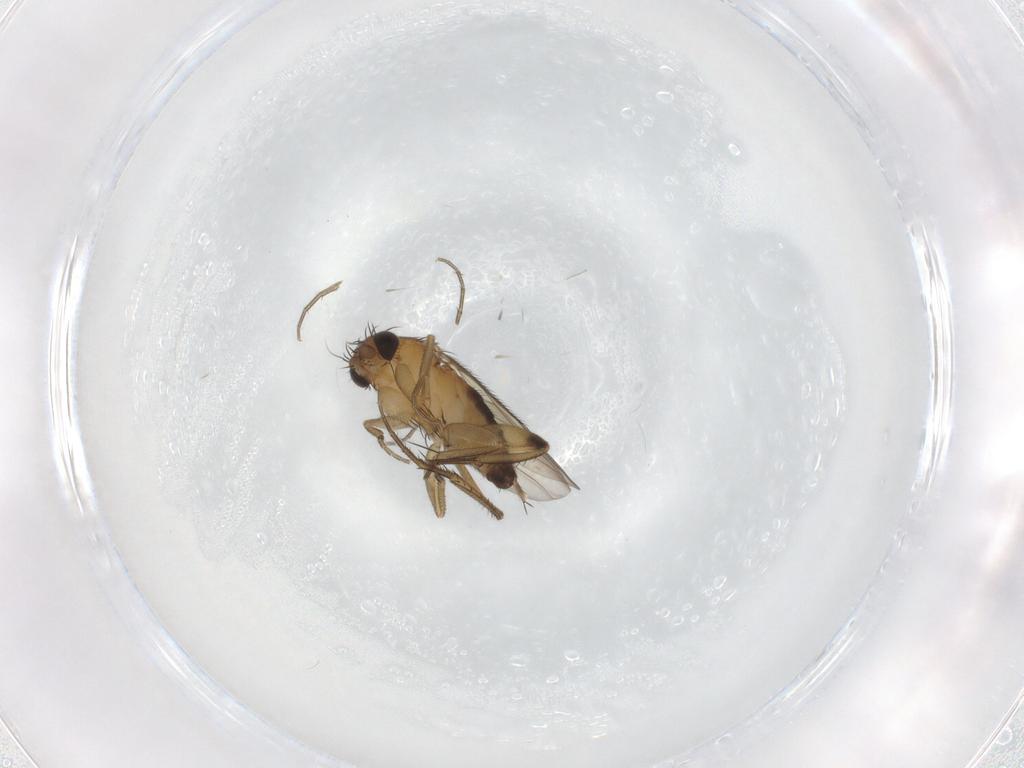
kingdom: Animalia
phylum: Arthropoda
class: Insecta
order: Diptera
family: Phoridae
